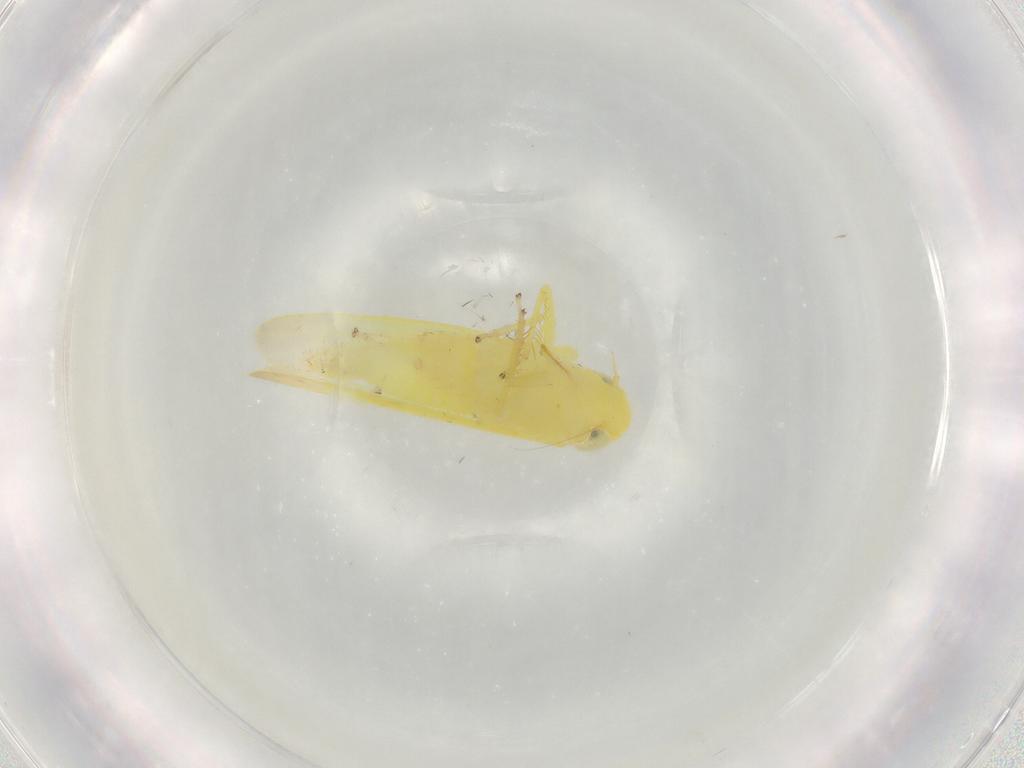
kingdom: Animalia
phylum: Arthropoda
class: Insecta
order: Hemiptera
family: Cicadellidae
